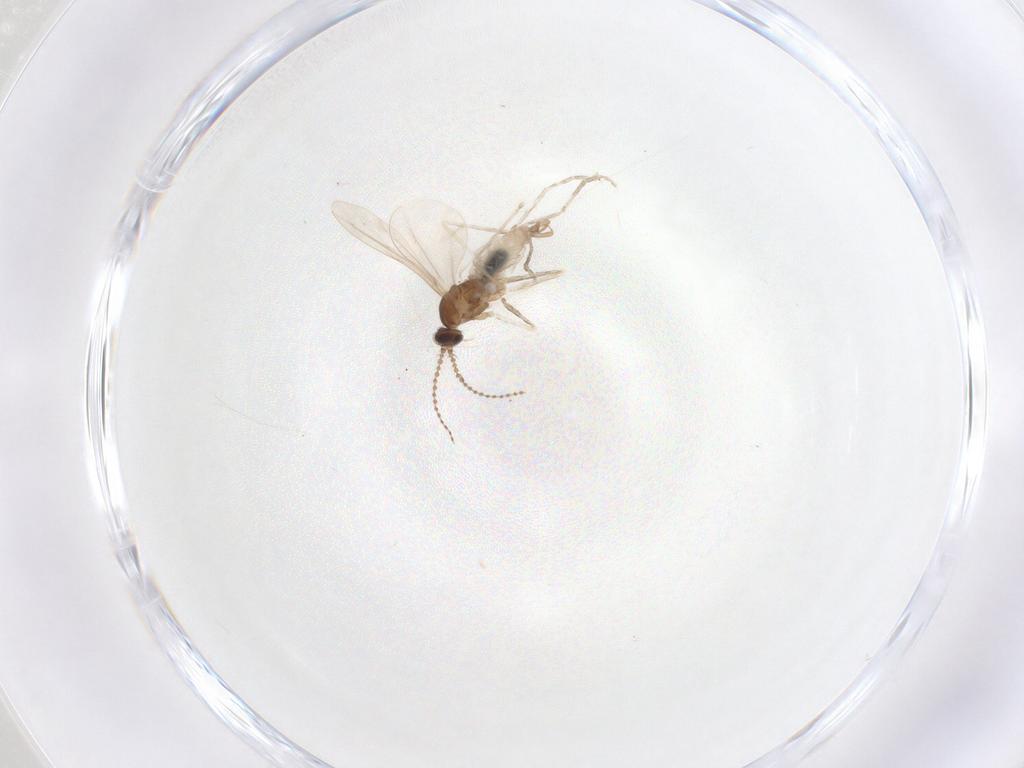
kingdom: Animalia
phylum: Arthropoda
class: Insecta
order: Diptera
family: Cecidomyiidae
